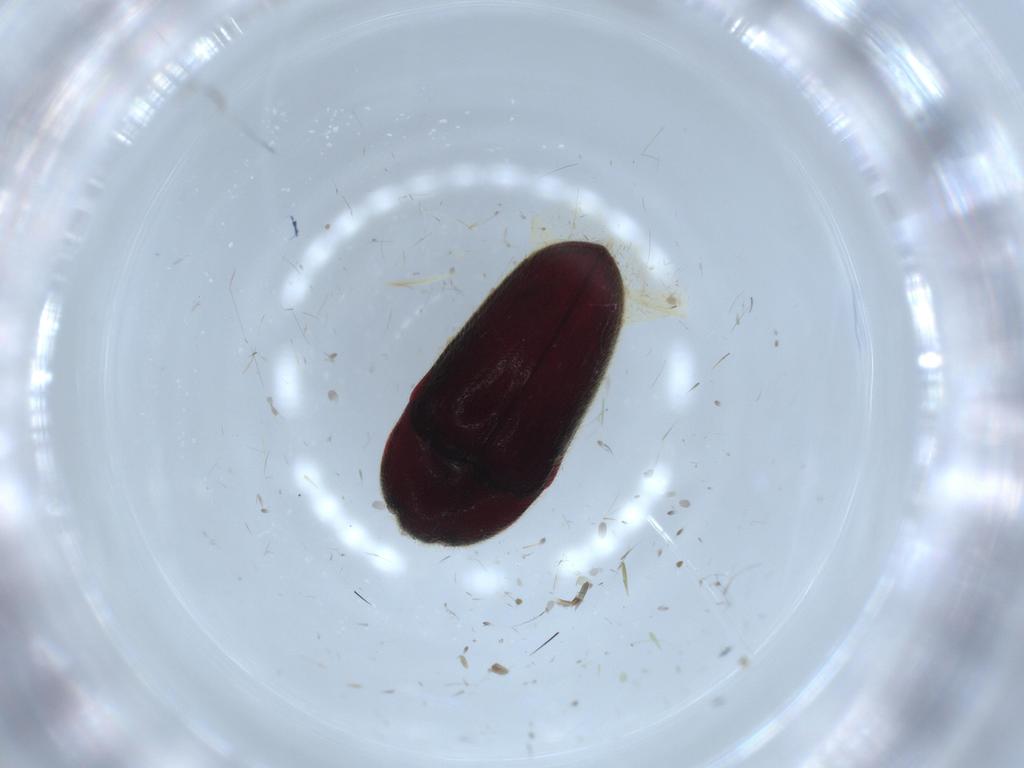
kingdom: Animalia
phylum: Arthropoda
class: Insecta
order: Coleoptera
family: Throscidae
